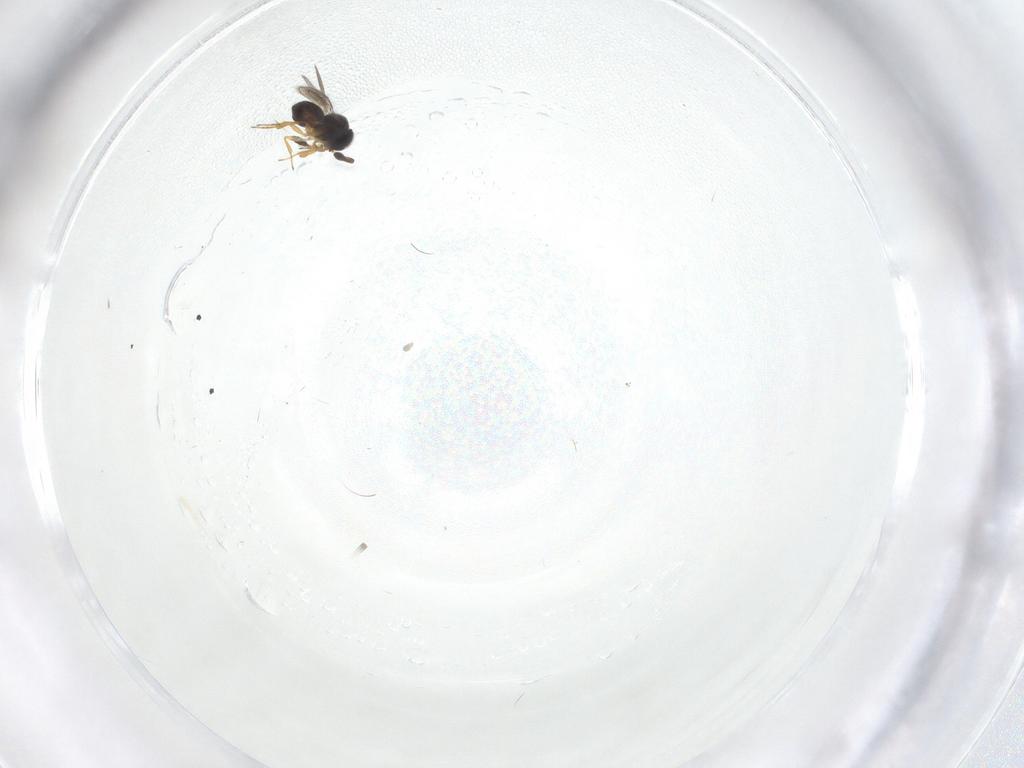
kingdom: Animalia
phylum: Arthropoda
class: Insecta
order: Hymenoptera
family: Scelionidae
